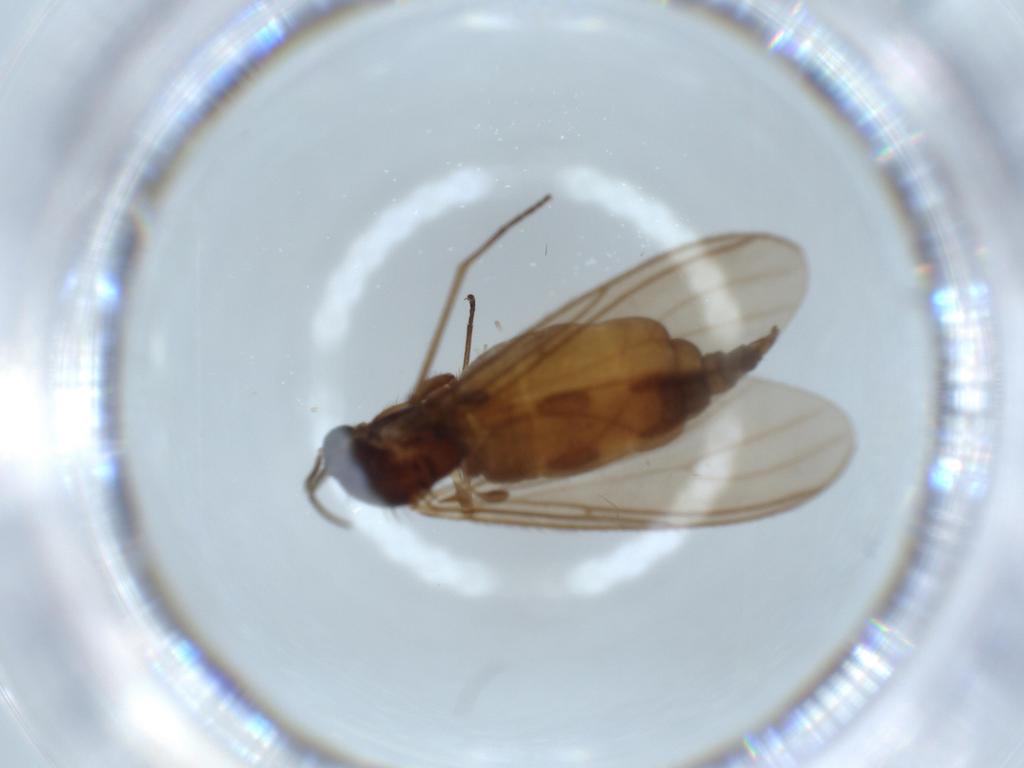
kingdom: Animalia
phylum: Arthropoda
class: Insecta
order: Diptera
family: Sciaridae
